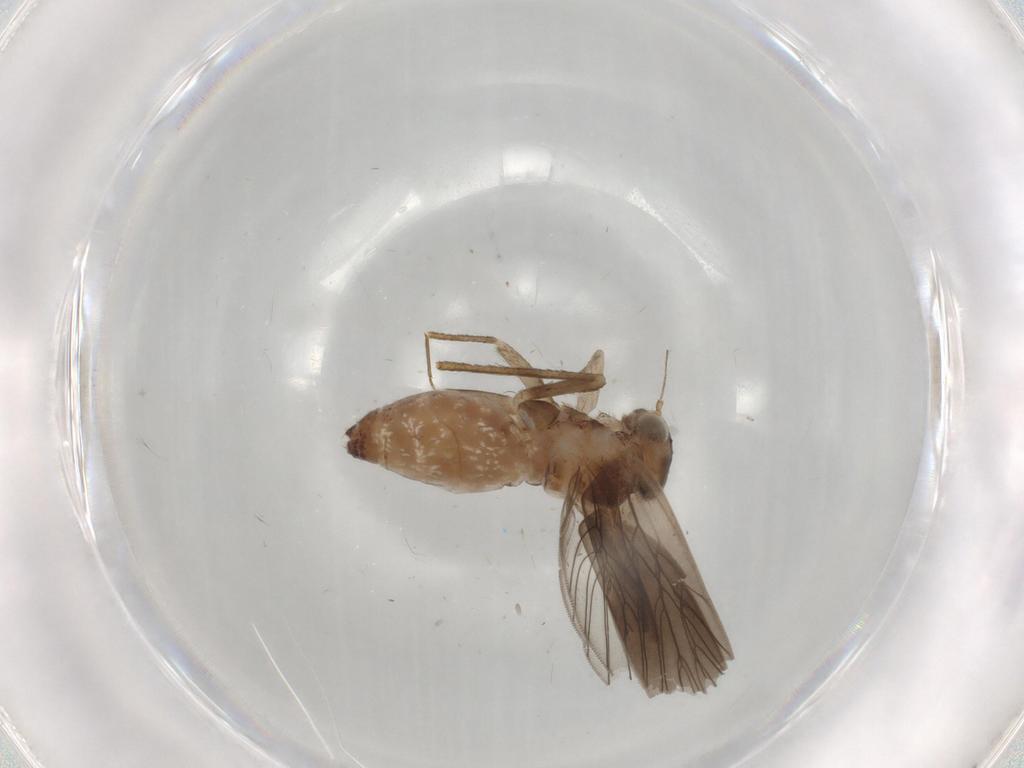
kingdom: Animalia
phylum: Arthropoda
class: Insecta
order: Psocodea
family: Lepidopsocidae
